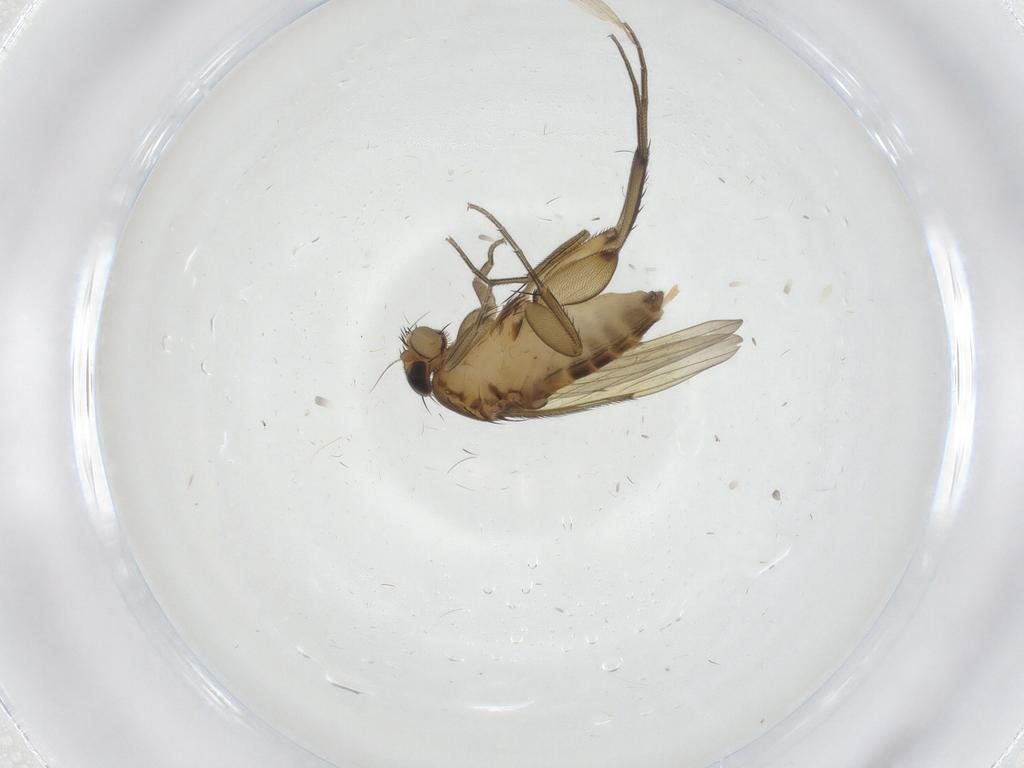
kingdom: Animalia
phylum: Arthropoda
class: Insecta
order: Diptera
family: Phoridae
